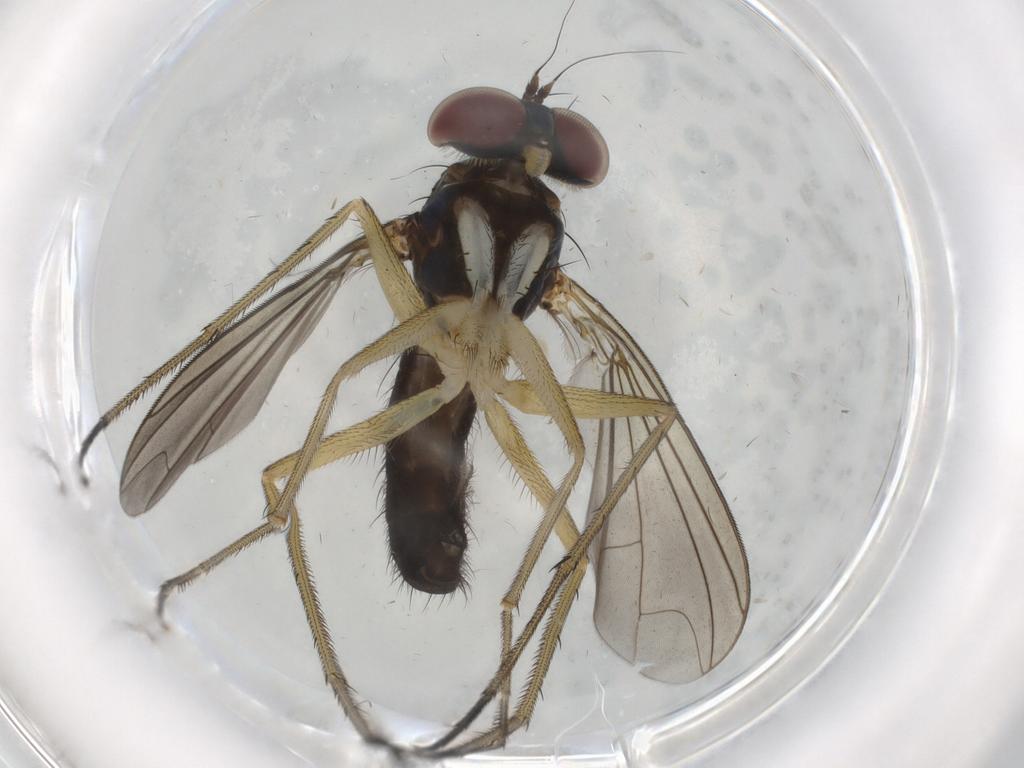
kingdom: Animalia
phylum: Arthropoda
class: Insecta
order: Diptera
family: Dolichopodidae
